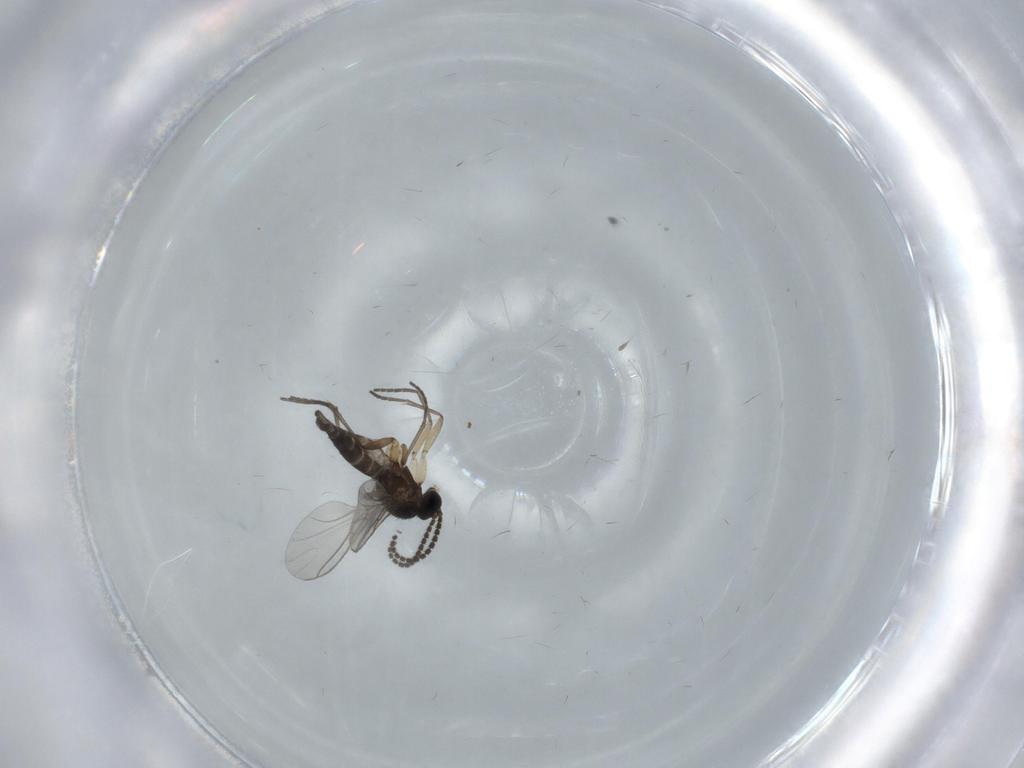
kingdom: Animalia
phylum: Arthropoda
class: Insecta
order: Diptera
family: Sciaridae
